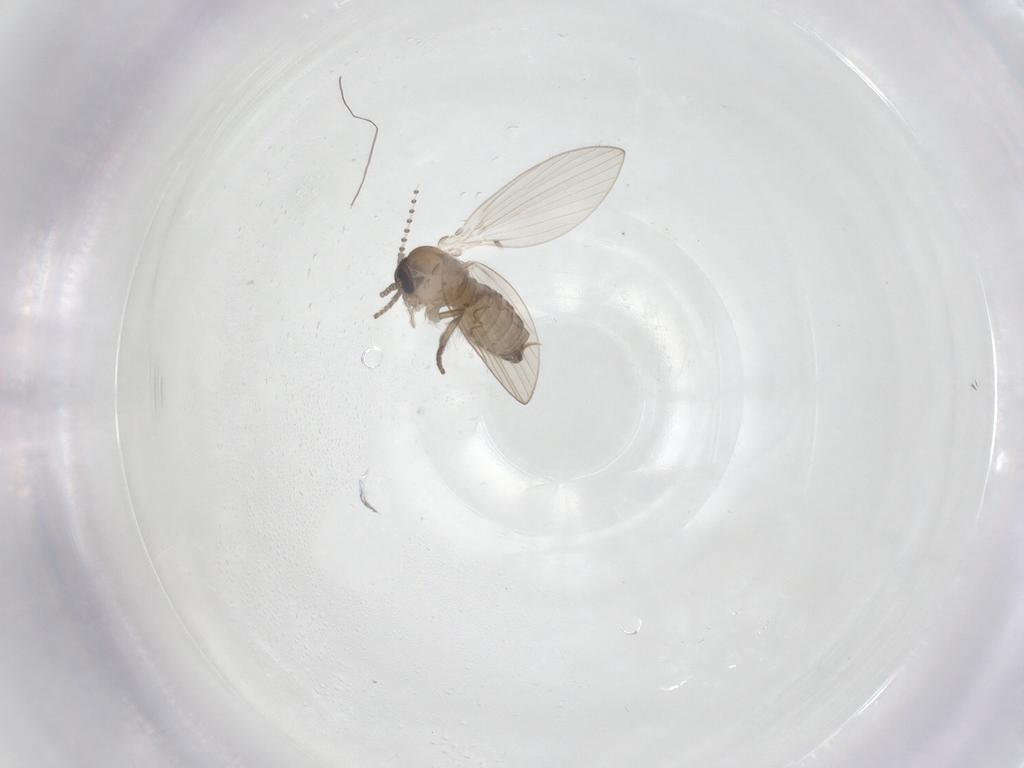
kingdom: Animalia
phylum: Arthropoda
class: Insecta
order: Diptera
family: Psychodidae
